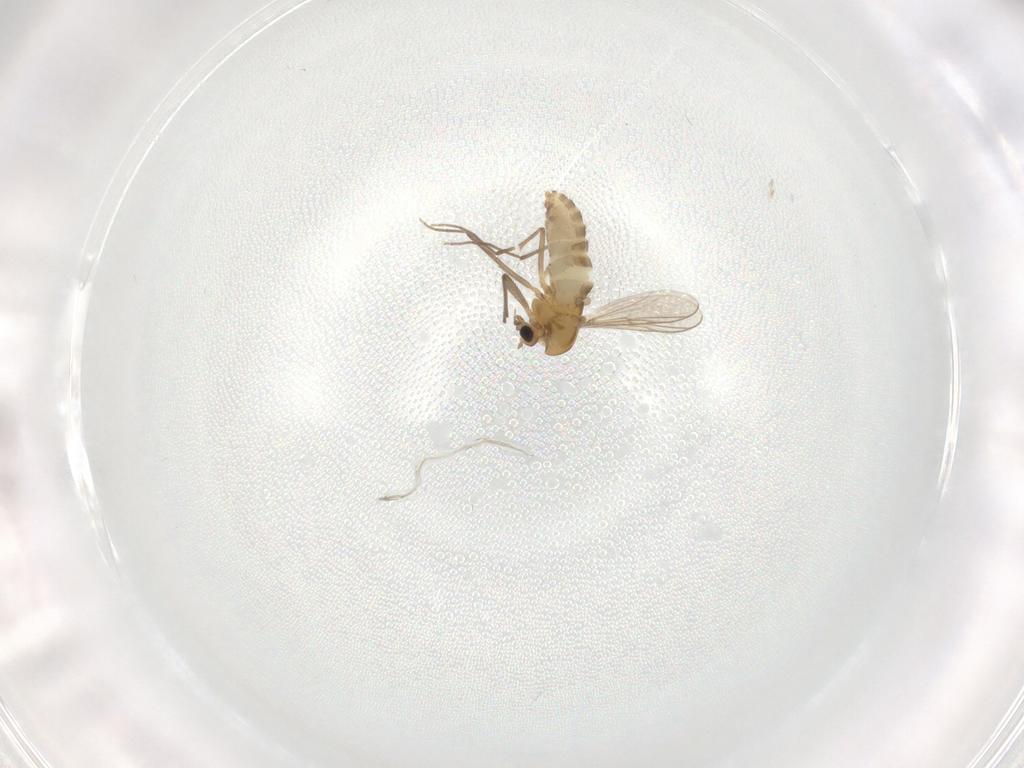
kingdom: Animalia
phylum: Arthropoda
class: Insecta
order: Diptera
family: Chironomidae
